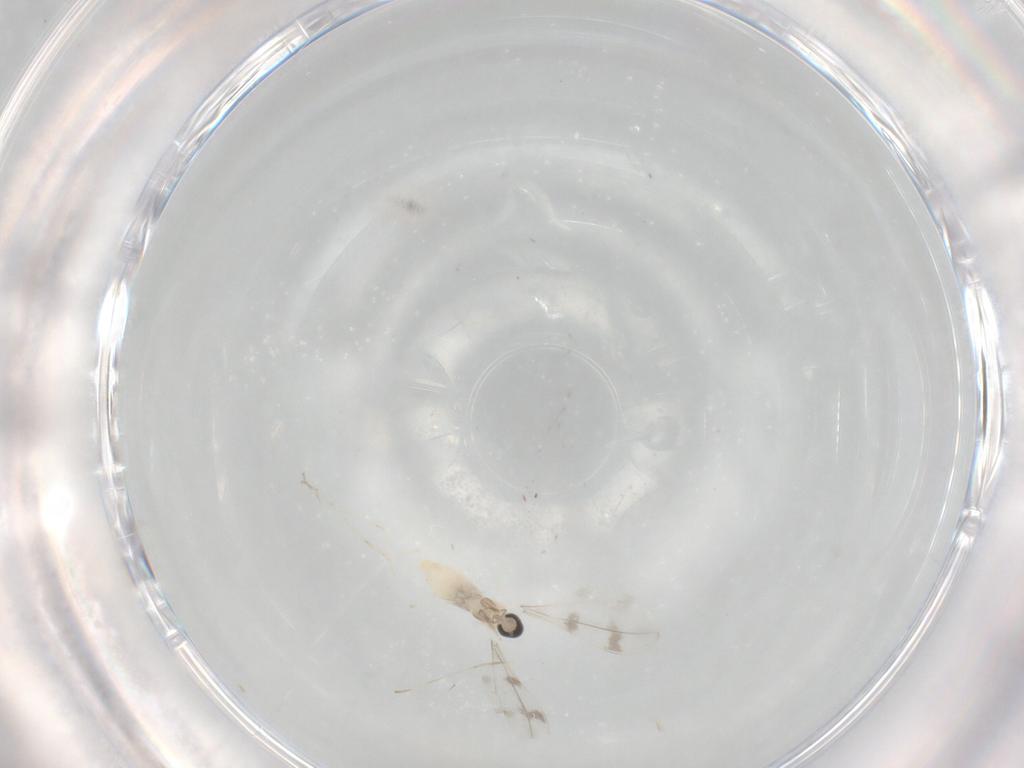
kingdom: Animalia
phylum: Arthropoda
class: Insecta
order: Diptera
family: Cecidomyiidae
